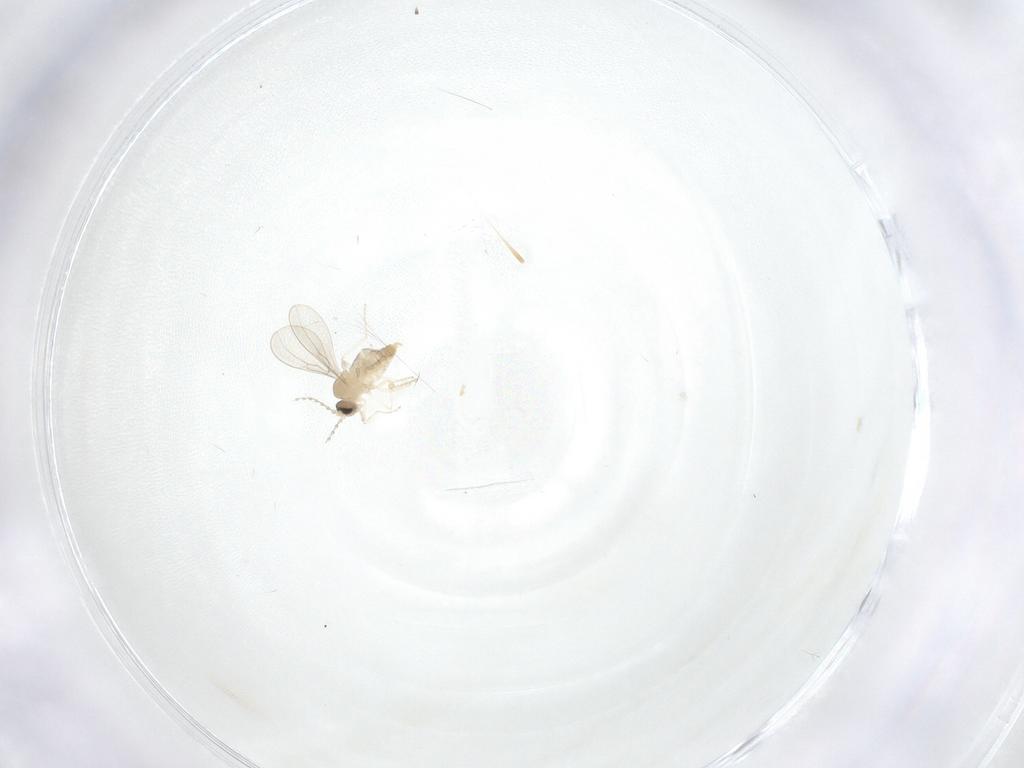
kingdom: Animalia
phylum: Arthropoda
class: Insecta
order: Diptera
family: Cecidomyiidae
